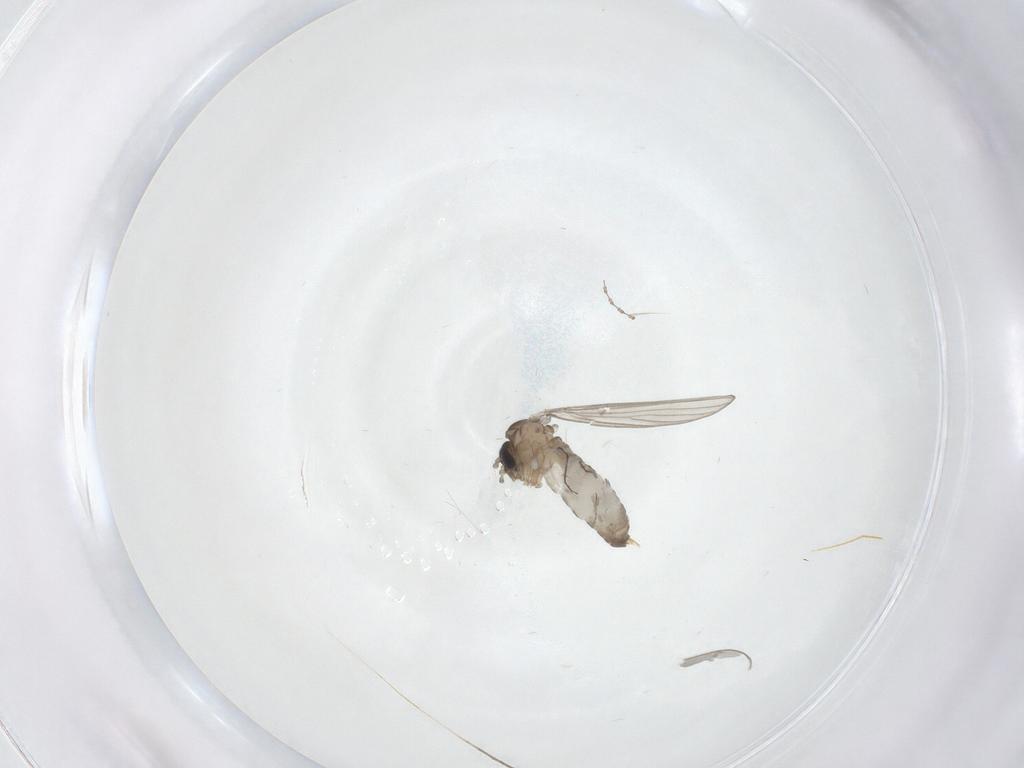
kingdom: Animalia
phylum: Arthropoda
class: Insecta
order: Diptera
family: Psychodidae
